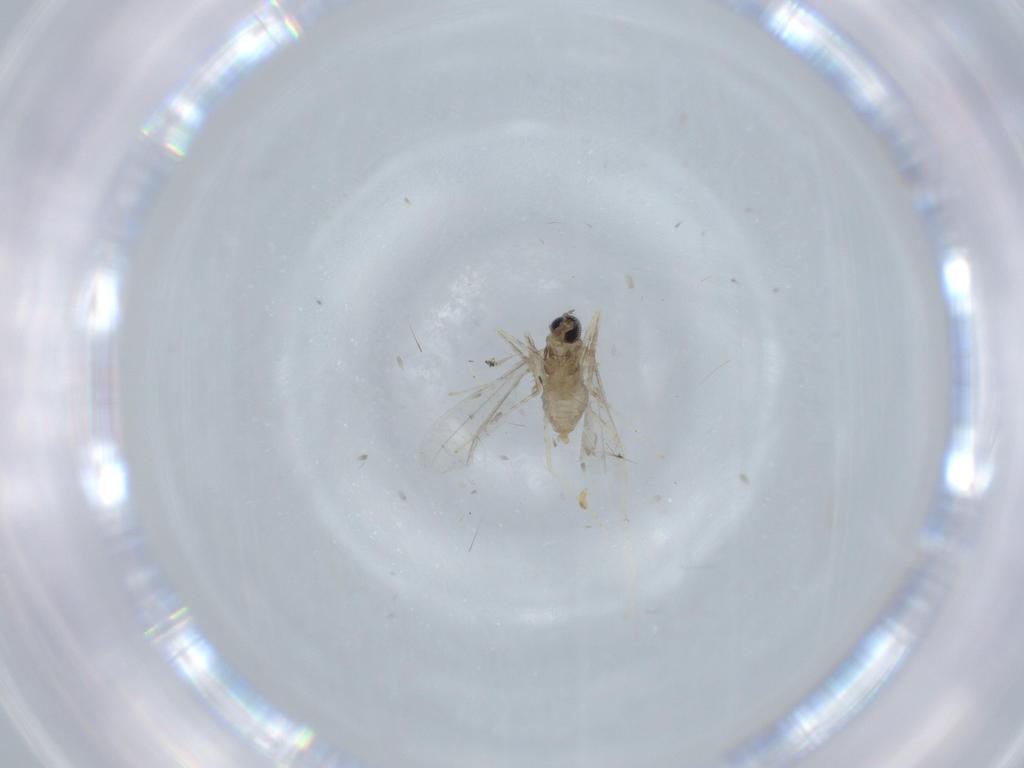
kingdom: Animalia
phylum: Arthropoda
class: Insecta
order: Diptera
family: Cecidomyiidae
